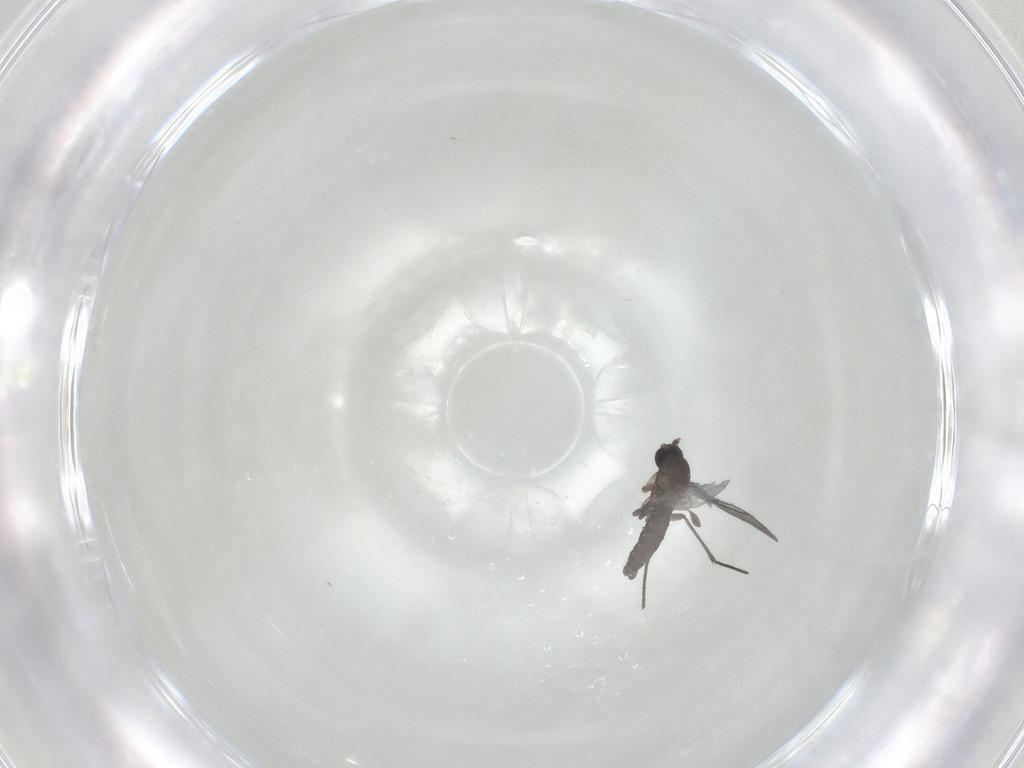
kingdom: Animalia
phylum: Arthropoda
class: Insecta
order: Diptera
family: Sciaridae
